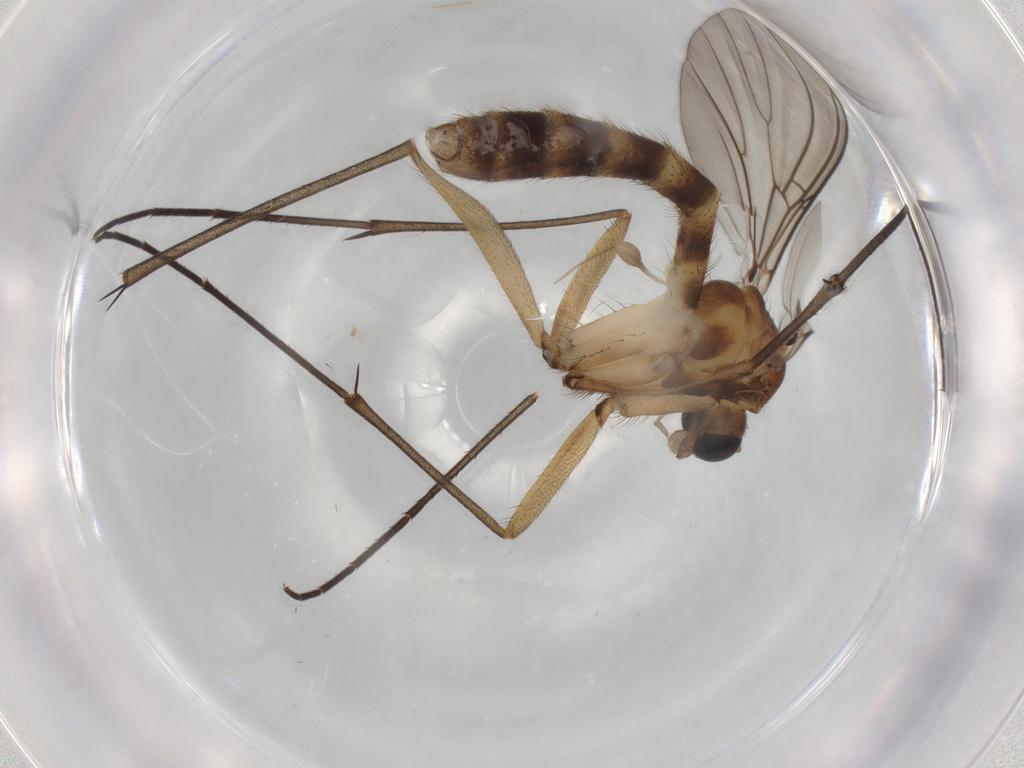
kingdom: Animalia
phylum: Arthropoda
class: Insecta
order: Diptera
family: Mycetophilidae
